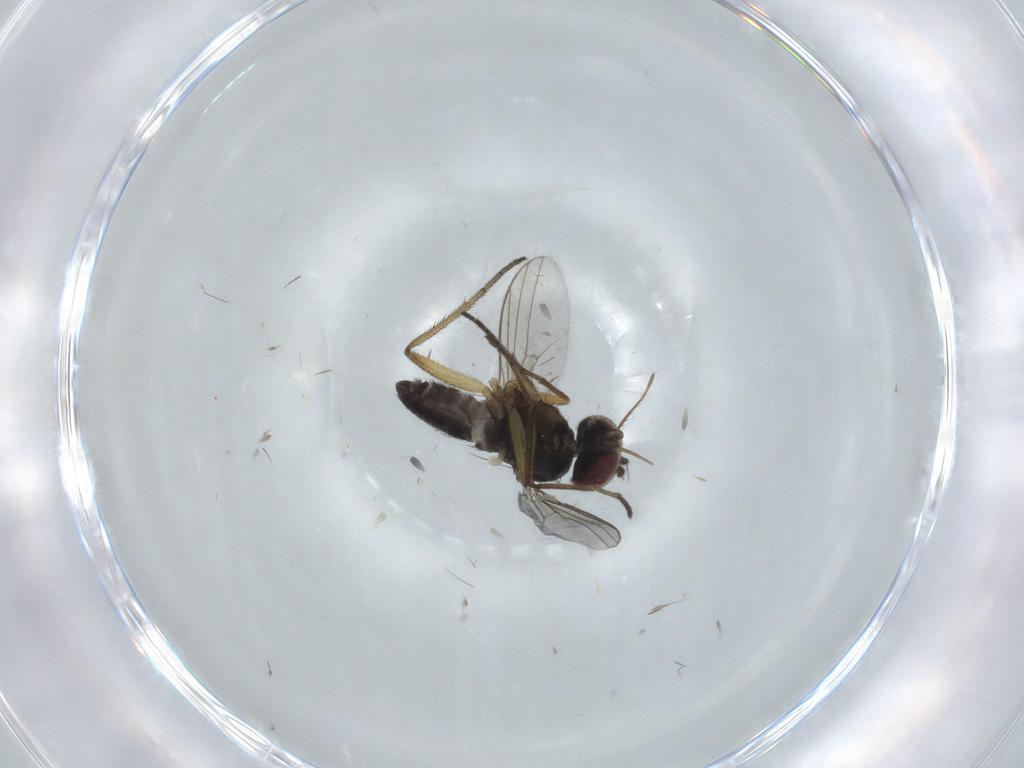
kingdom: Animalia
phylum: Arthropoda
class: Insecta
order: Diptera
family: Dolichopodidae
